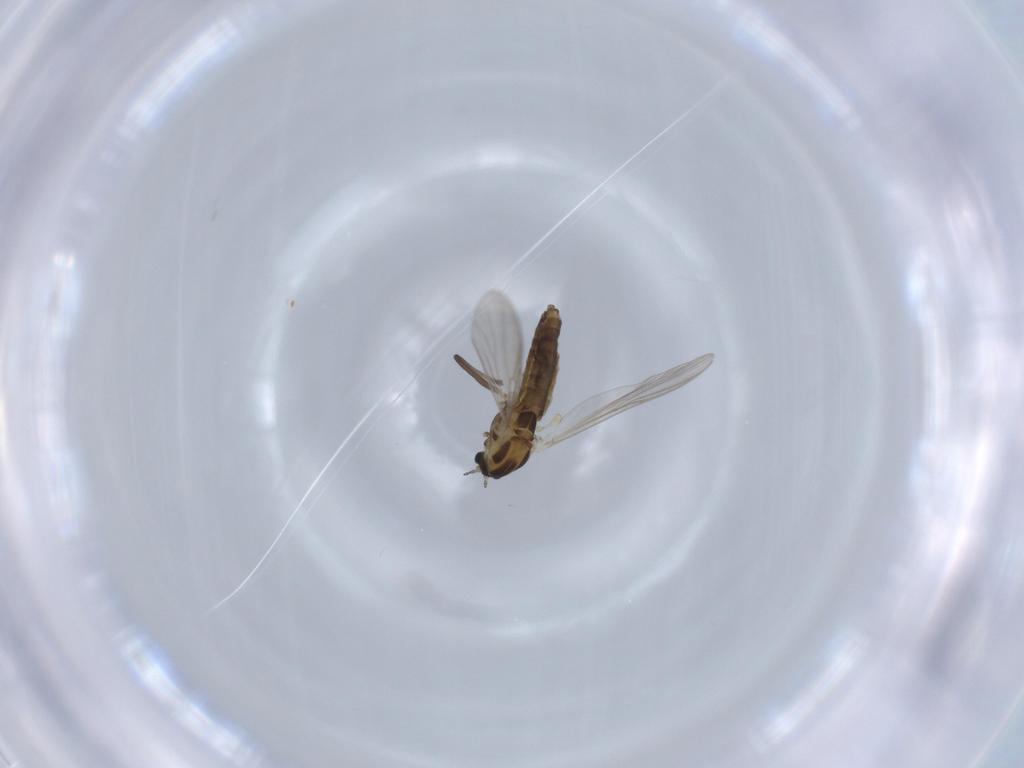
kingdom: Animalia
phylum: Arthropoda
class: Insecta
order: Diptera
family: Chironomidae
